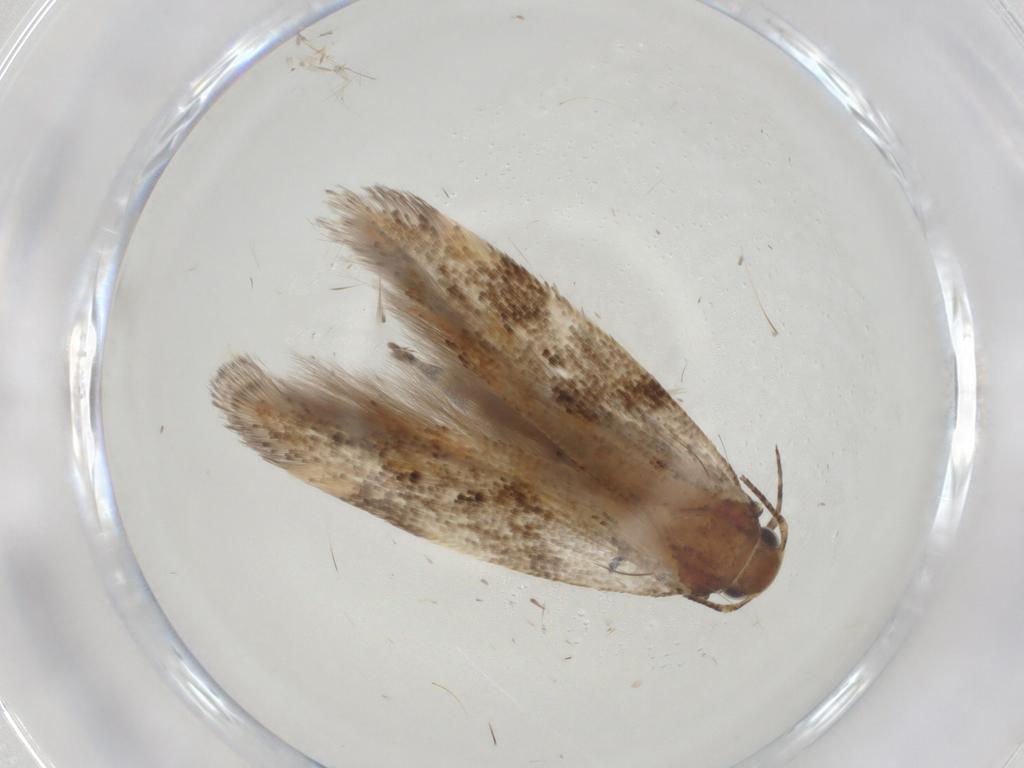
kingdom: Animalia
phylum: Arthropoda
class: Insecta
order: Lepidoptera
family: Gelechiidae
